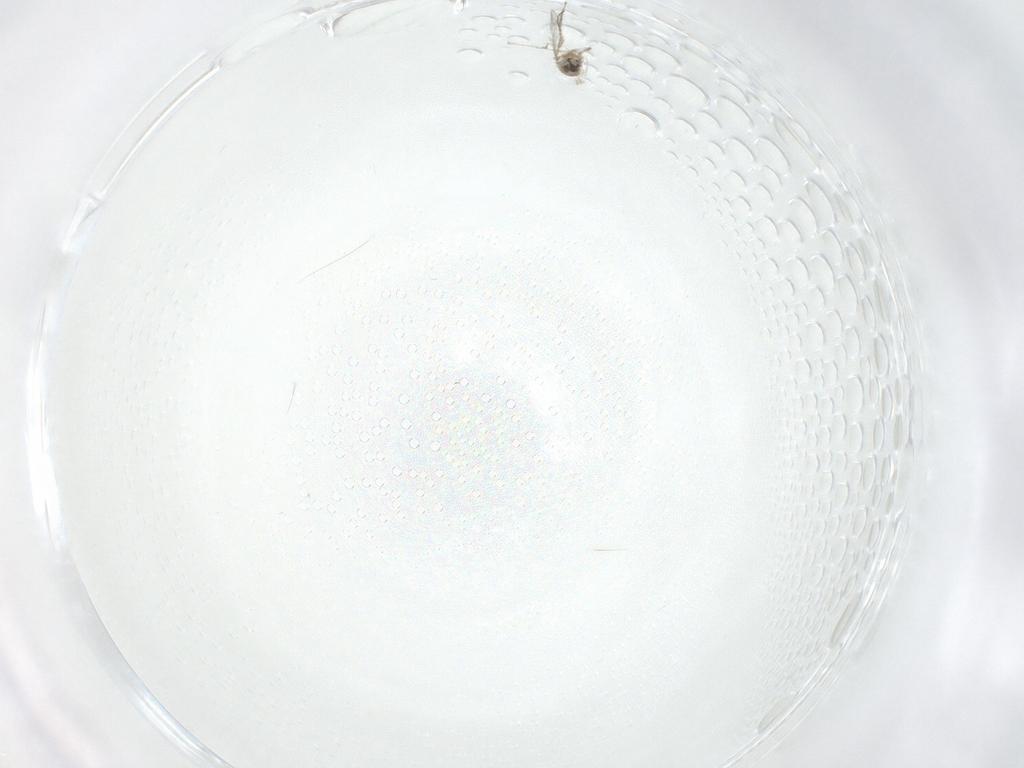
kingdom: Animalia
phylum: Arthropoda
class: Insecta
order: Diptera
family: Cecidomyiidae
